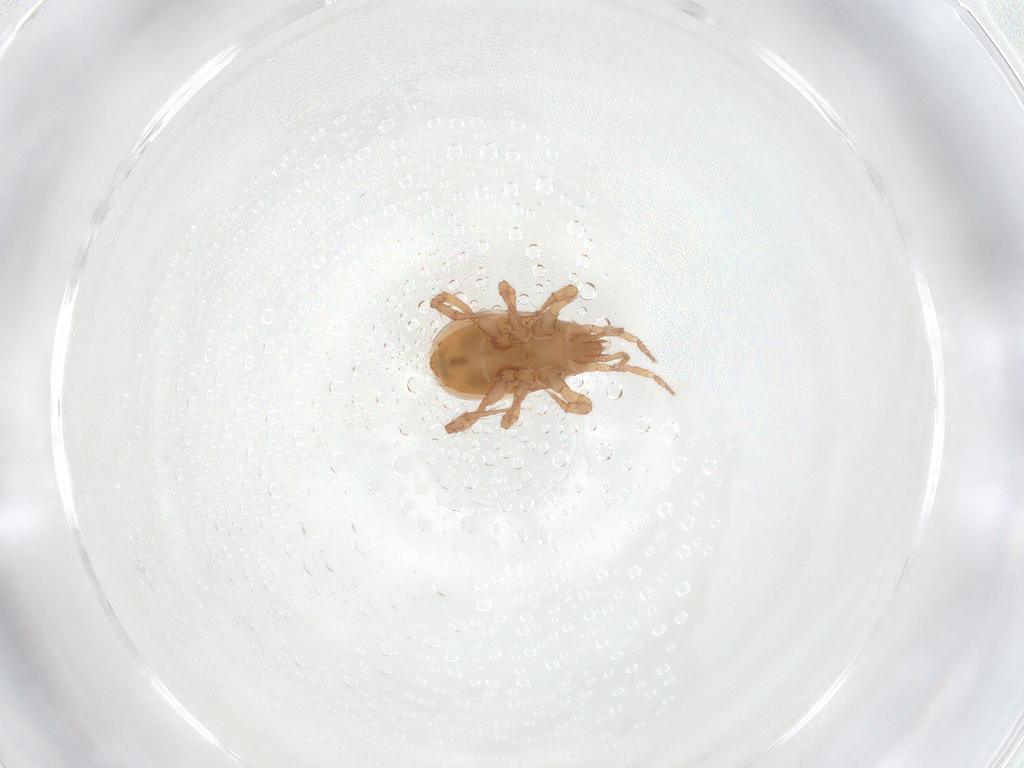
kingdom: Animalia
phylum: Arthropoda
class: Arachnida
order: Mesostigmata
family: Veigaiidae
